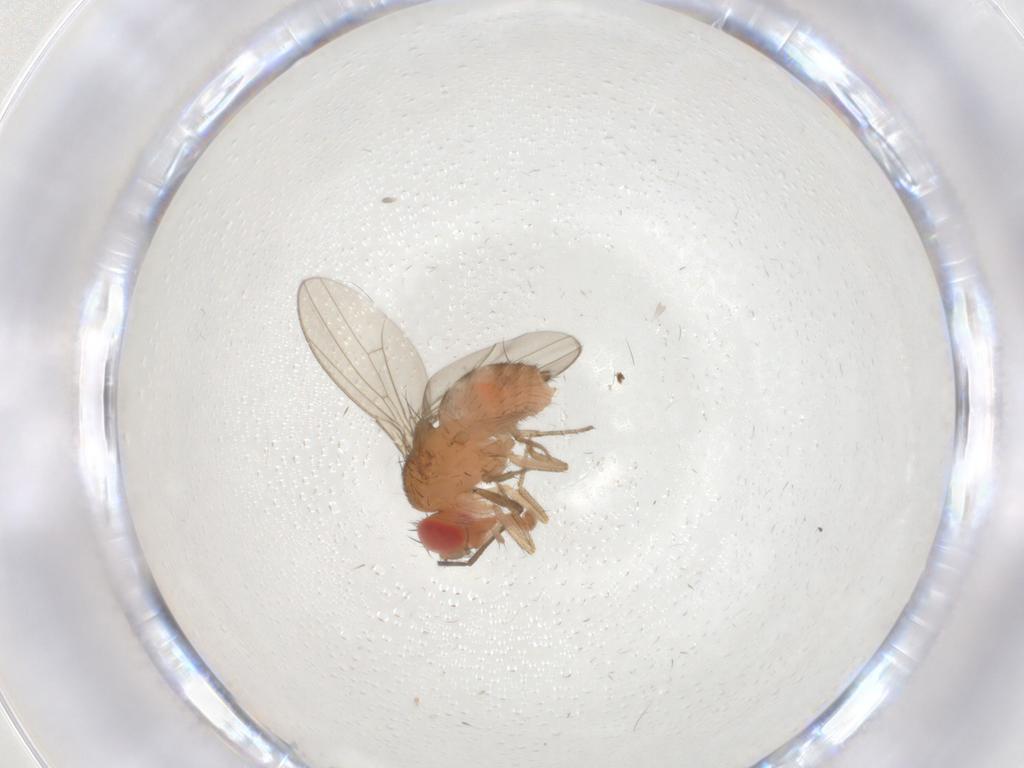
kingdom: Animalia
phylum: Arthropoda
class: Insecta
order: Diptera
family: Drosophilidae
